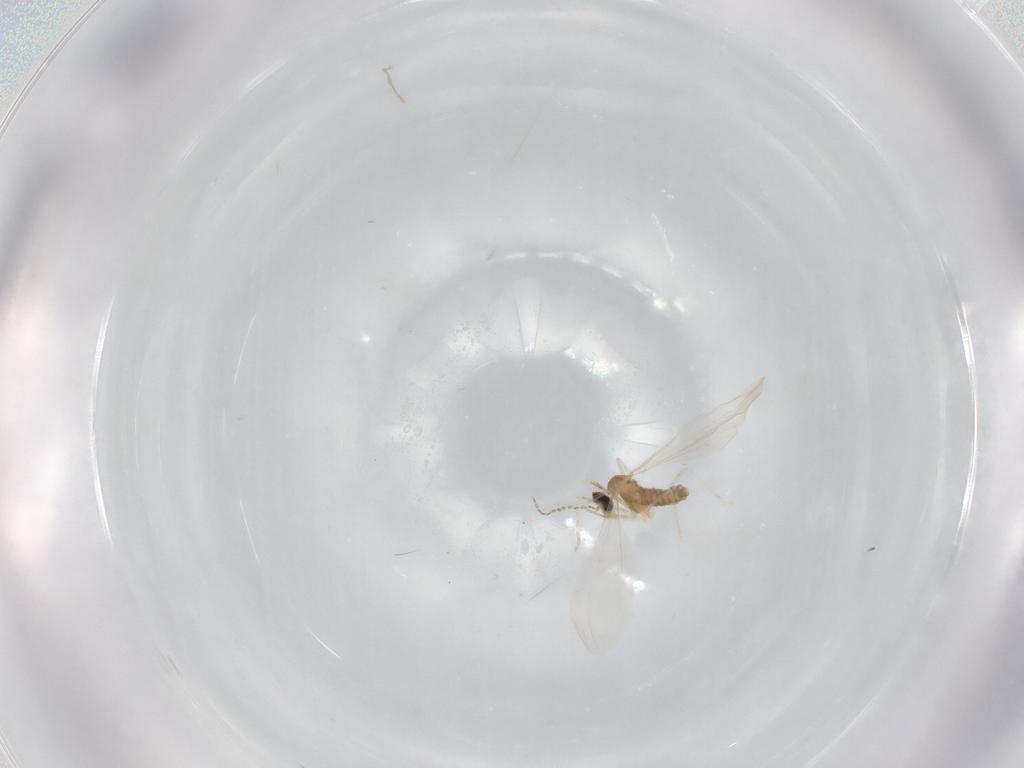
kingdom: Animalia
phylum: Arthropoda
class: Insecta
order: Diptera
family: Cecidomyiidae
